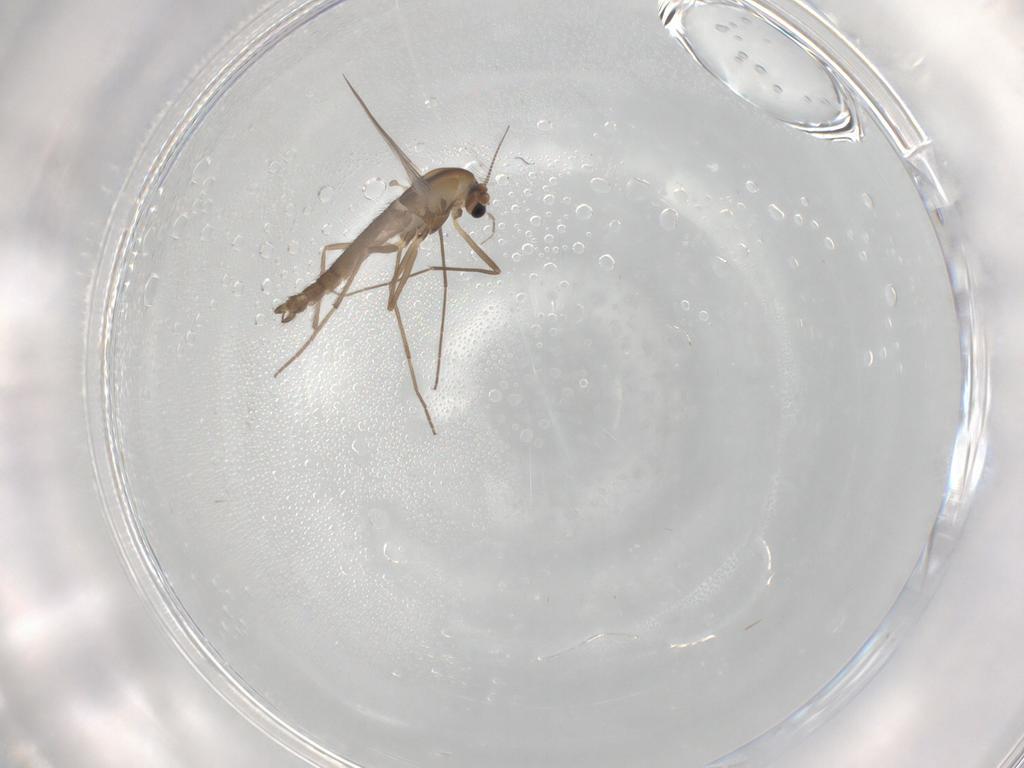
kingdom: Animalia
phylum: Arthropoda
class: Insecta
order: Diptera
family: Chironomidae
